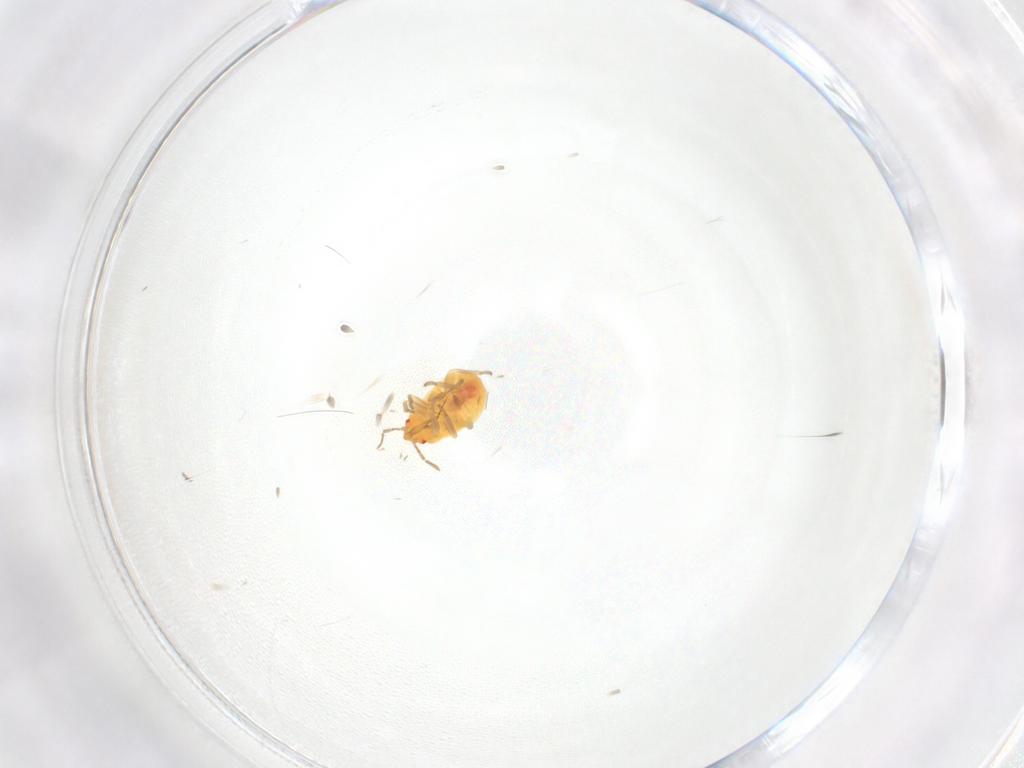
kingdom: Animalia
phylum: Arthropoda
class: Insecta
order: Hemiptera
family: Anthocoridae
